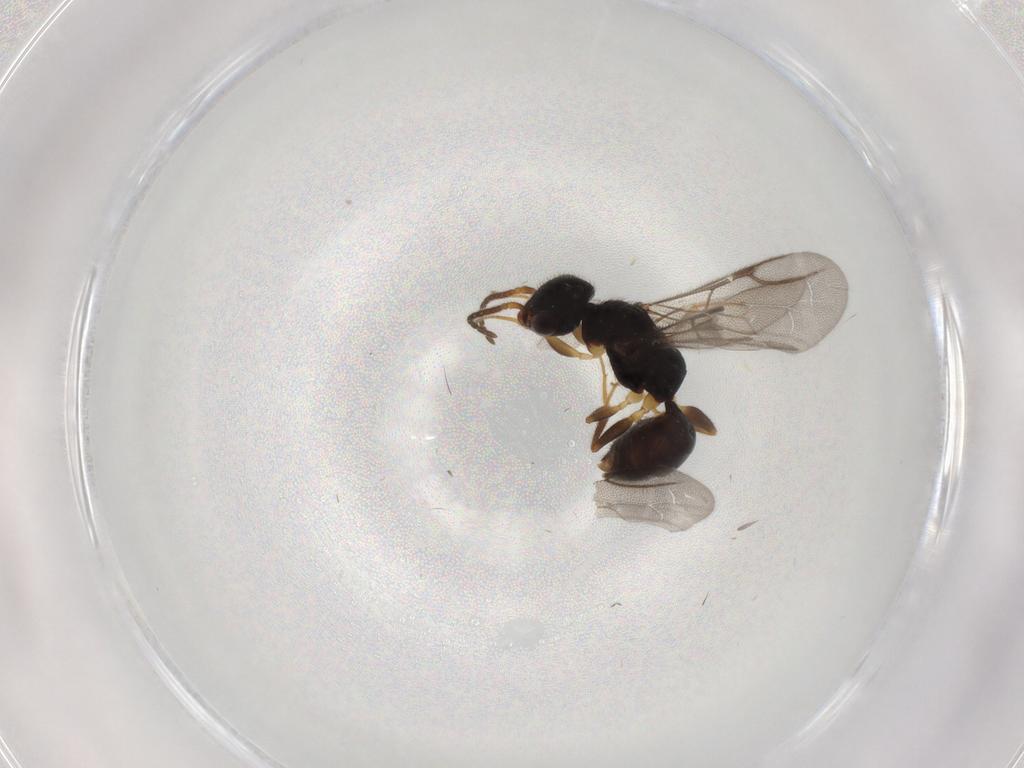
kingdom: Animalia
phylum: Arthropoda
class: Insecta
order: Hymenoptera
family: Bethylidae
